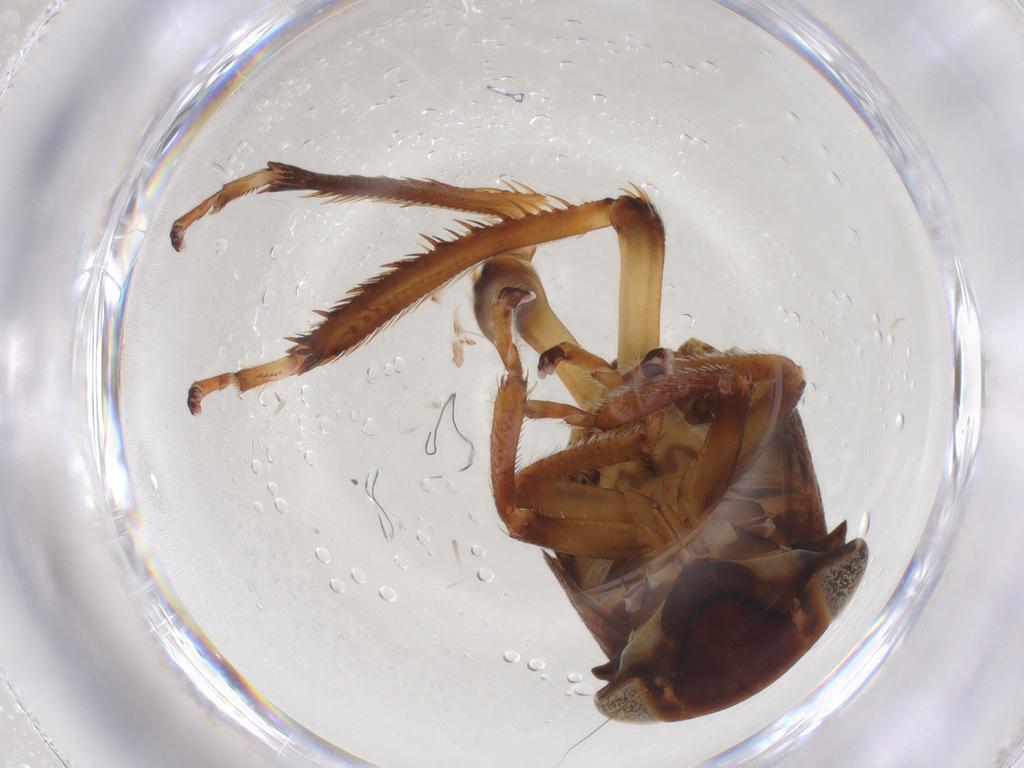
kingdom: Animalia
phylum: Arthropoda
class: Insecta
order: Hemiptera
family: Cicadellidae
